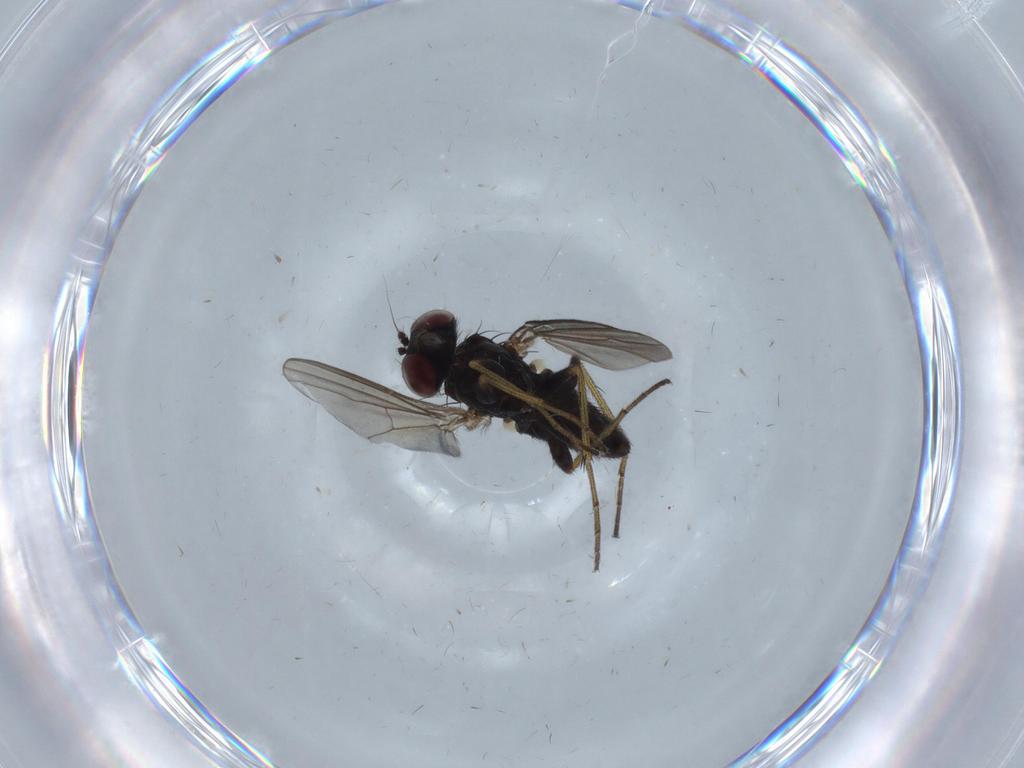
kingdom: Animalia
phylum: Arthropoda
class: Insecta
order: Diptera
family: Dolichopodidae
